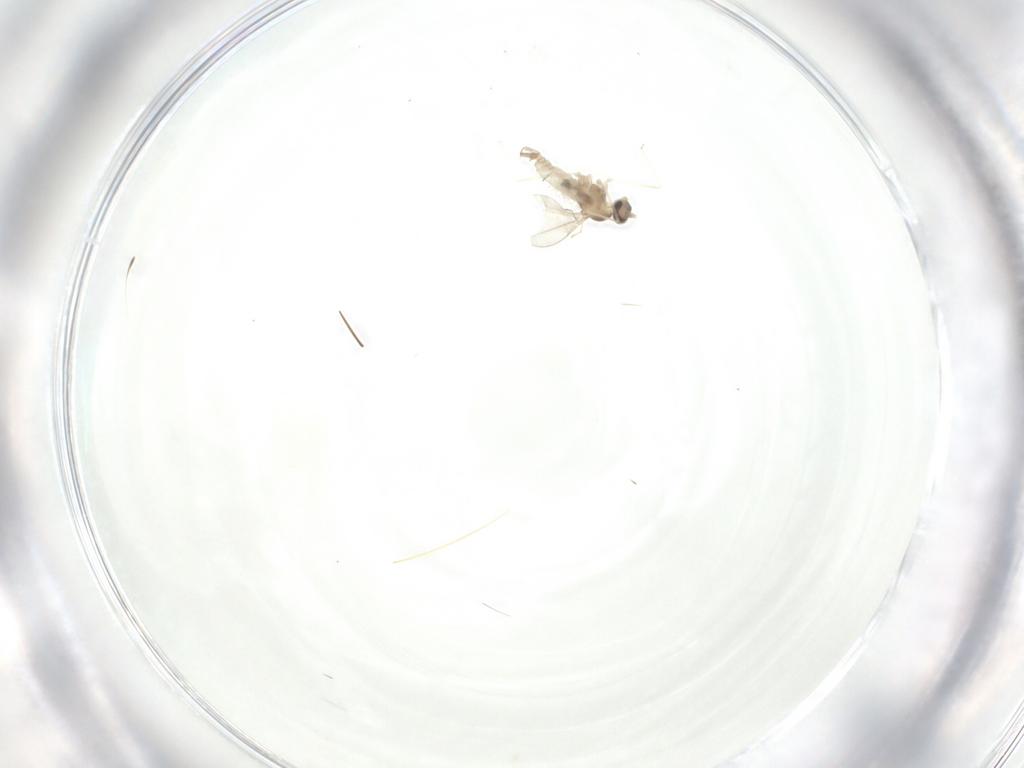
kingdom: Animalia
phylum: Arthropoda
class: Insecta
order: Diptera
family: Cecidomyiidae
